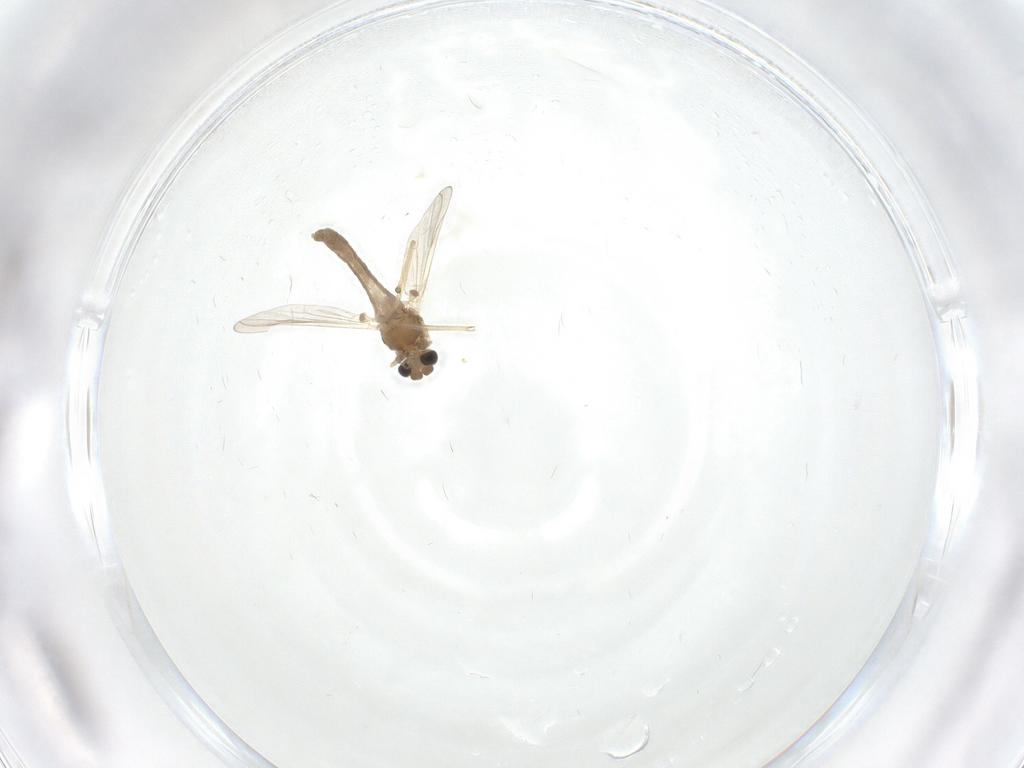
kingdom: Animalia
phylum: Arthropoda
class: Insecta
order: Diptera
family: Chironomidae
